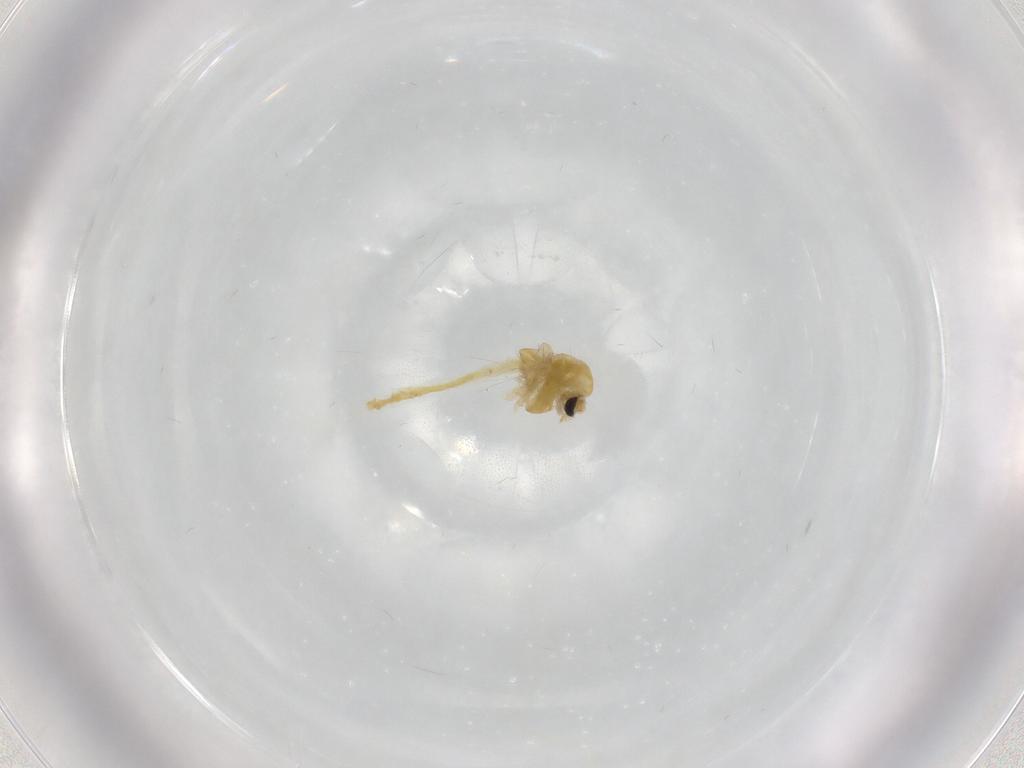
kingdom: Animalia
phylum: Arthropoda
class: Insecta
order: Diptera
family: Chironomidae
